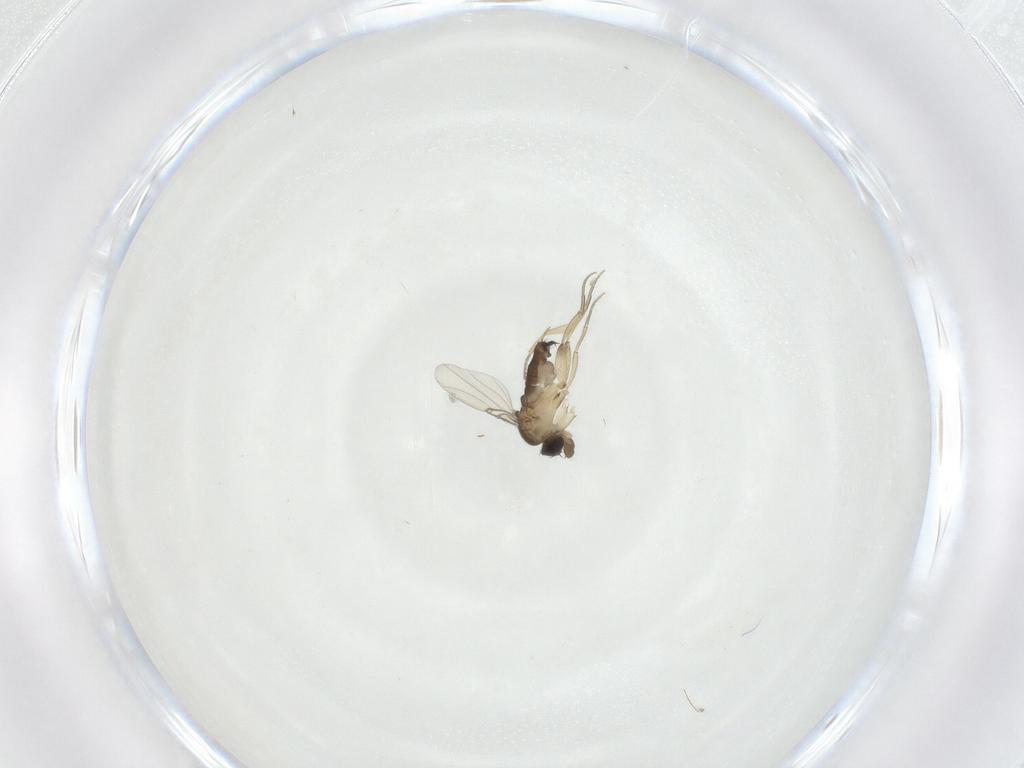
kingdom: Animalia
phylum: Arthropoda
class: Insecta
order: Diptera
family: Phoridae
